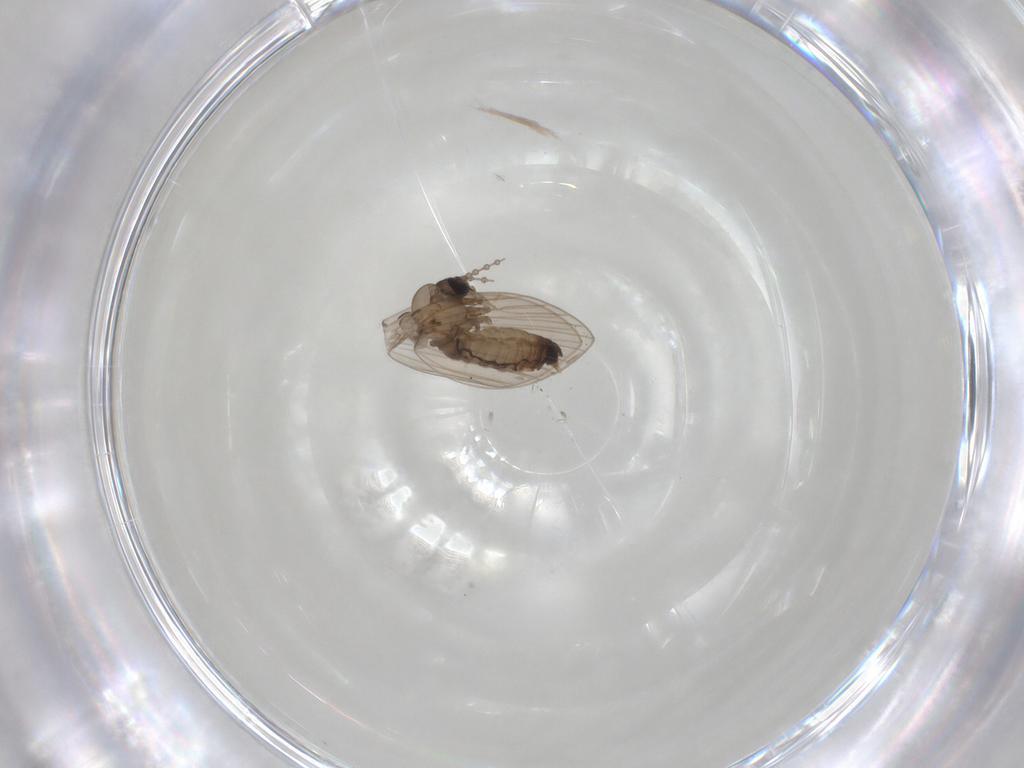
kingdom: Animalia
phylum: Arthropoda
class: Insecta
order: Diptera
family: Psychodidae
